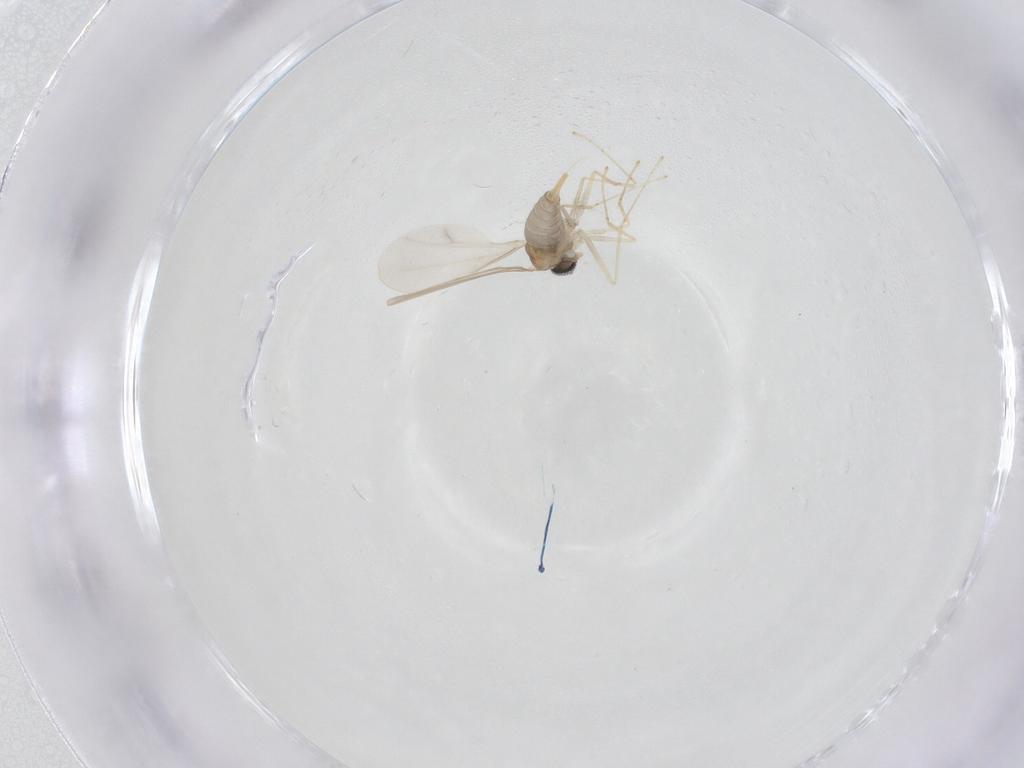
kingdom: Animalia
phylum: Arthropoda
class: Insecta
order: Diptera
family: Cecidomyiidae
